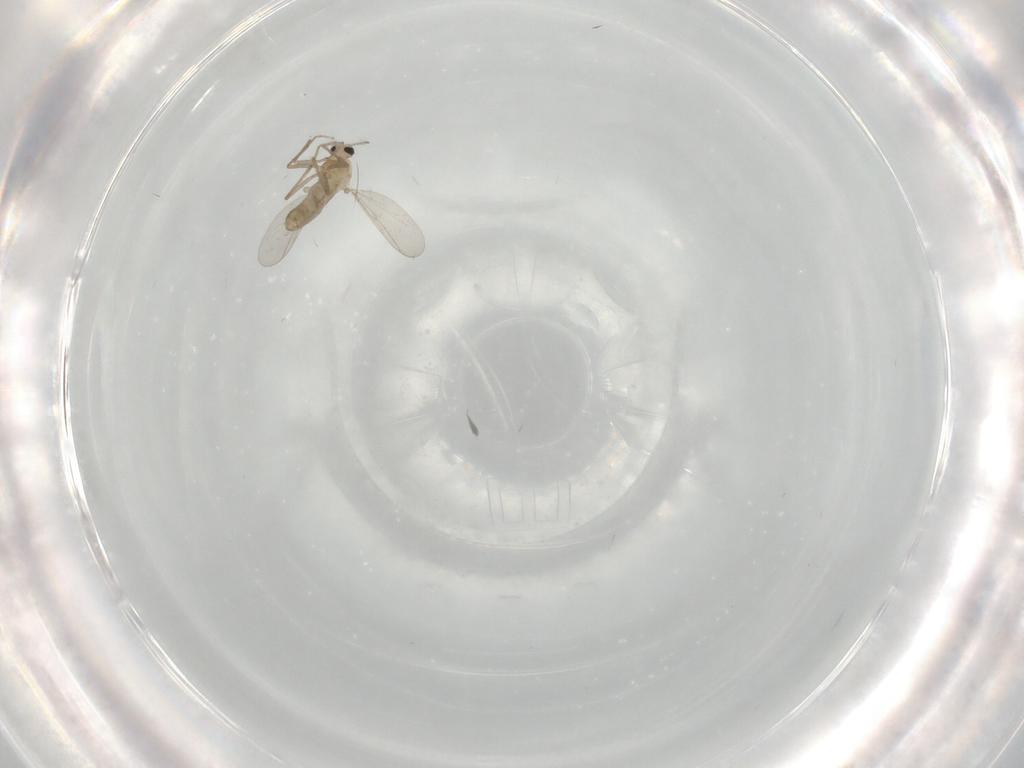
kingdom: Animalia
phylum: Arthropoda
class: Insecta
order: Diptera
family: Chironomidae
